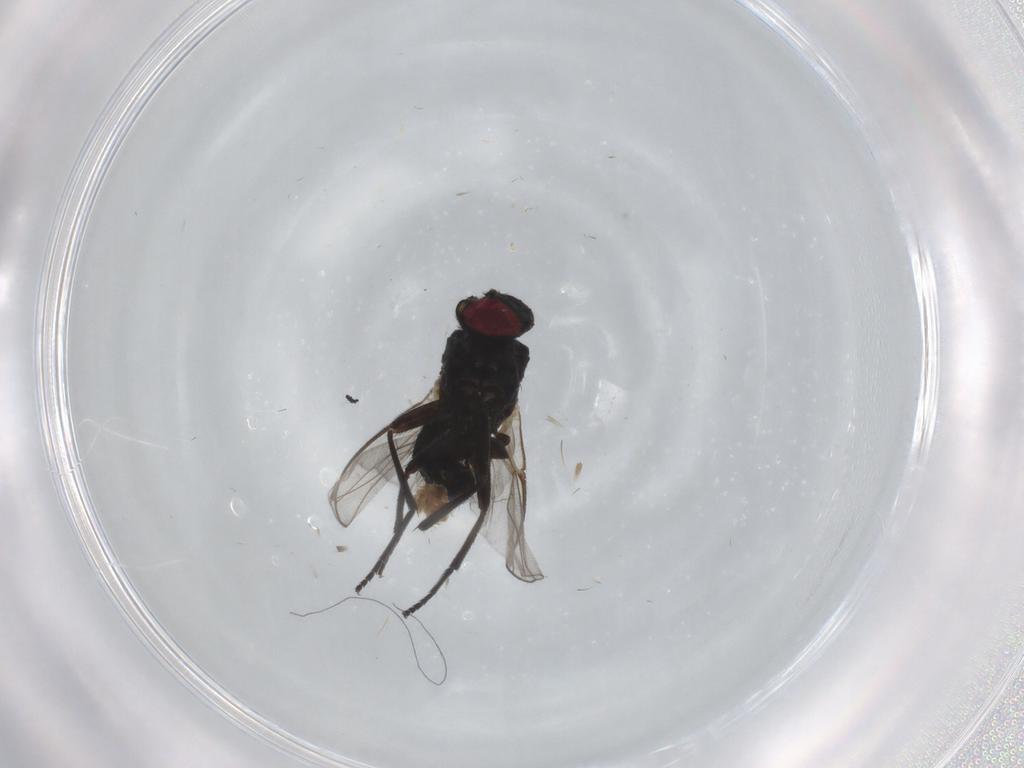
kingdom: Animalia
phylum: Arthropoda
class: Insecta
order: Diptera
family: Agromyzidae
